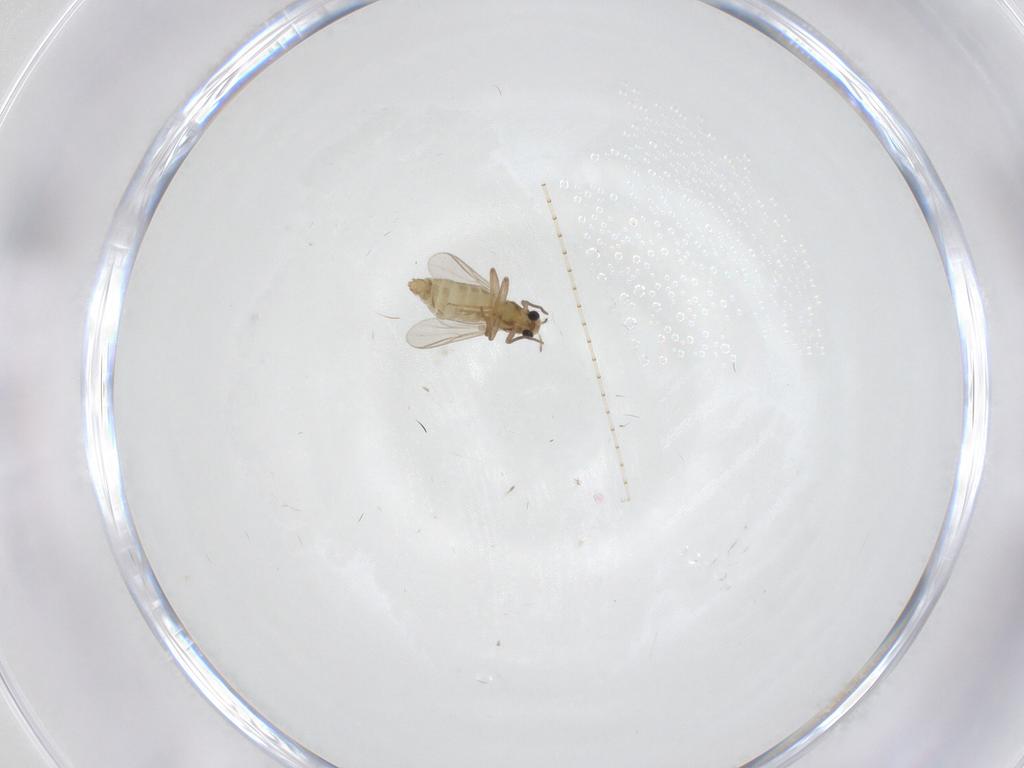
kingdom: Animalia
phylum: Arthropoda
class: Insecta
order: Diptera
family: Chironomidae
